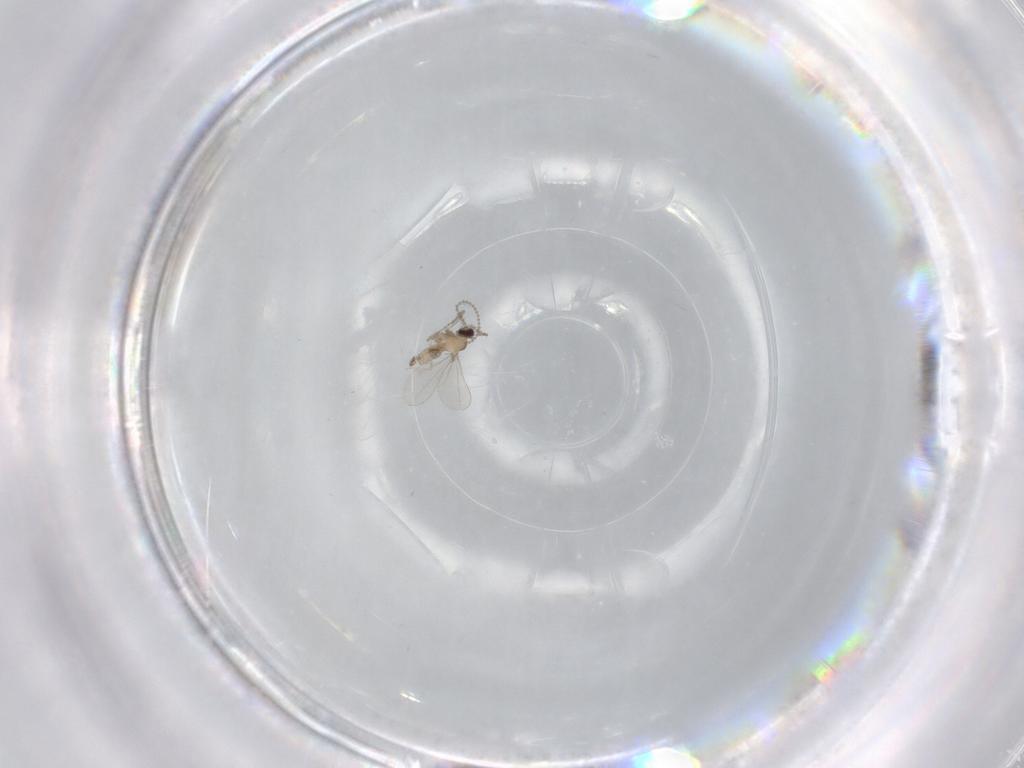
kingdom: Animalia
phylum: Arthropoda
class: Insecta
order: Diptera
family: Cecidomyiidae
